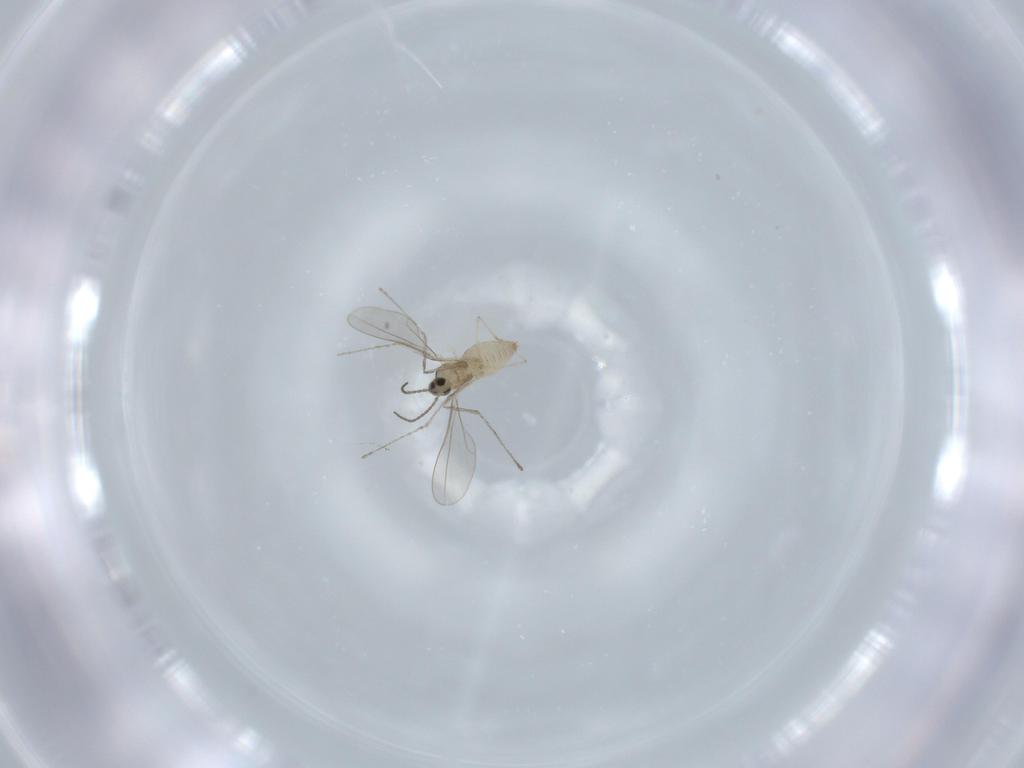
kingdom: Animalia
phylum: Arthropoda
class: Insecta
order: Diptera
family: Cecidomyiidae
